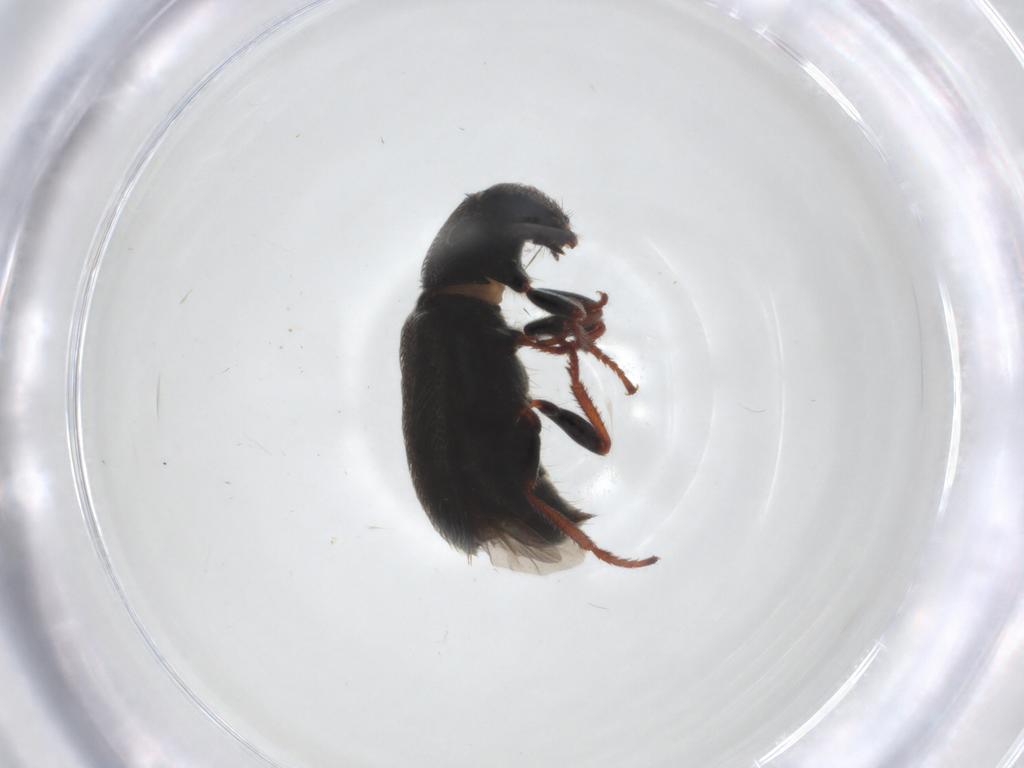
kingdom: Animalia
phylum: Arthropoda
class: Insecta
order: Coleoptera
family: Melyridae
